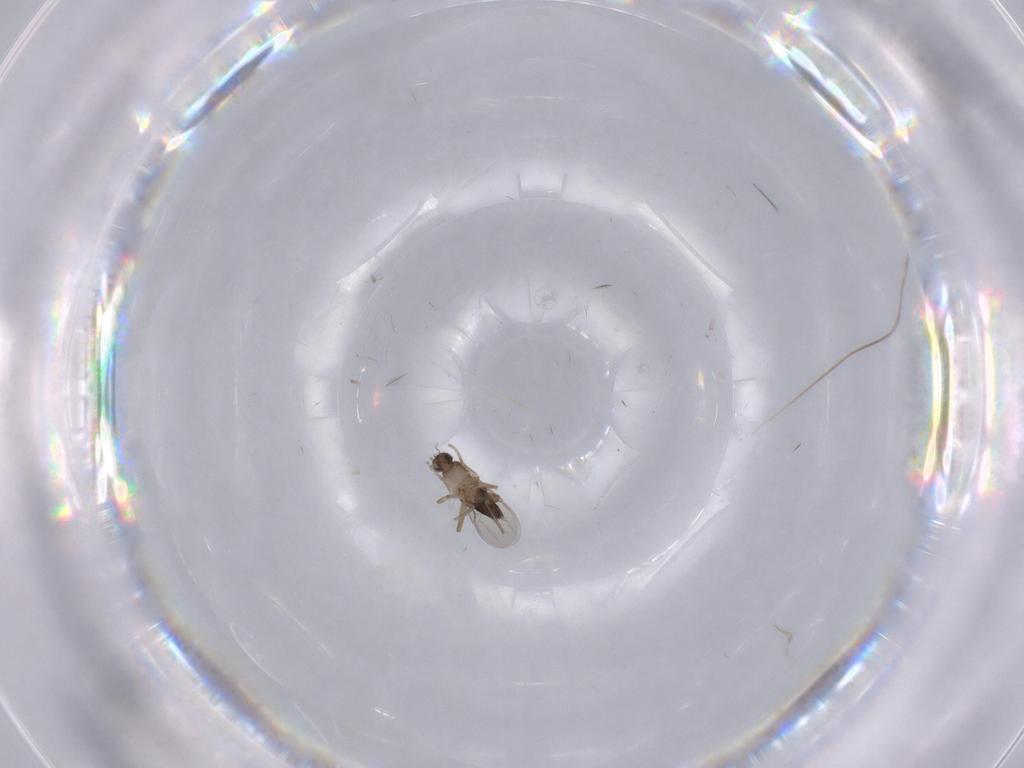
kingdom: Animalia
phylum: Arthropoda
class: Insecta
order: Diptera
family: Sciaridae
